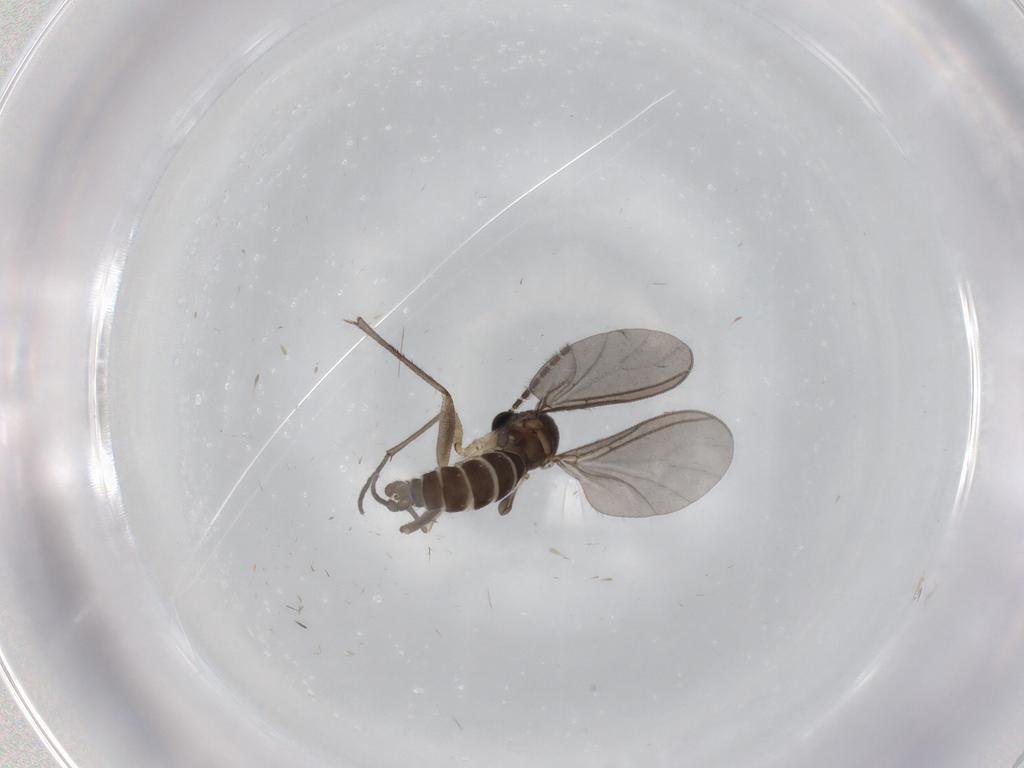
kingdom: Animalia
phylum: Arthropoda
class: Insecta
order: Diptera
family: Sciaridae
